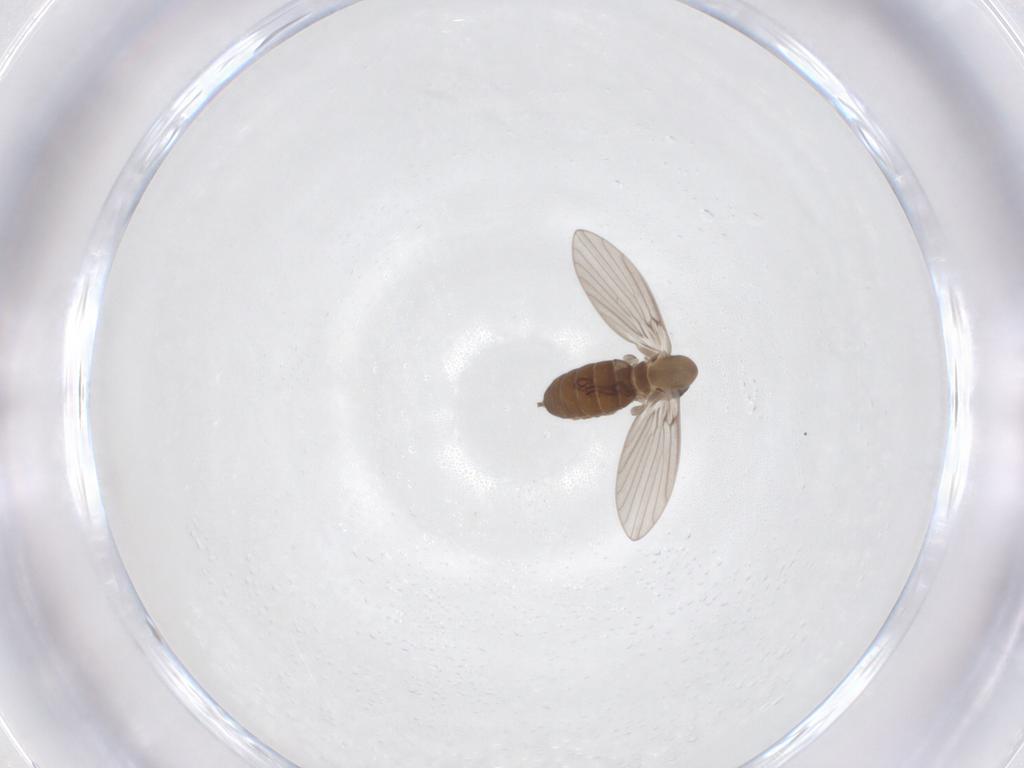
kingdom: Animalia
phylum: Arthropoda
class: Insecta
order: Diptera
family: Psychodidae
